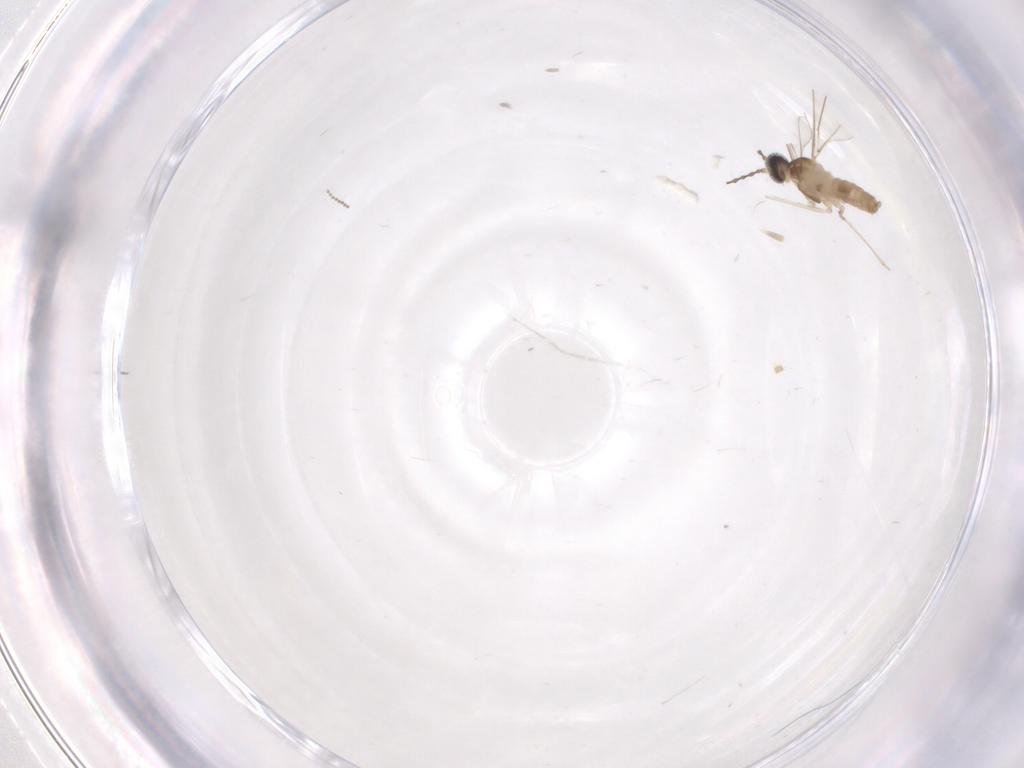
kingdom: Animalia
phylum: Arthropoda
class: Insecta
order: Diptera
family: Cecidomyiidae
